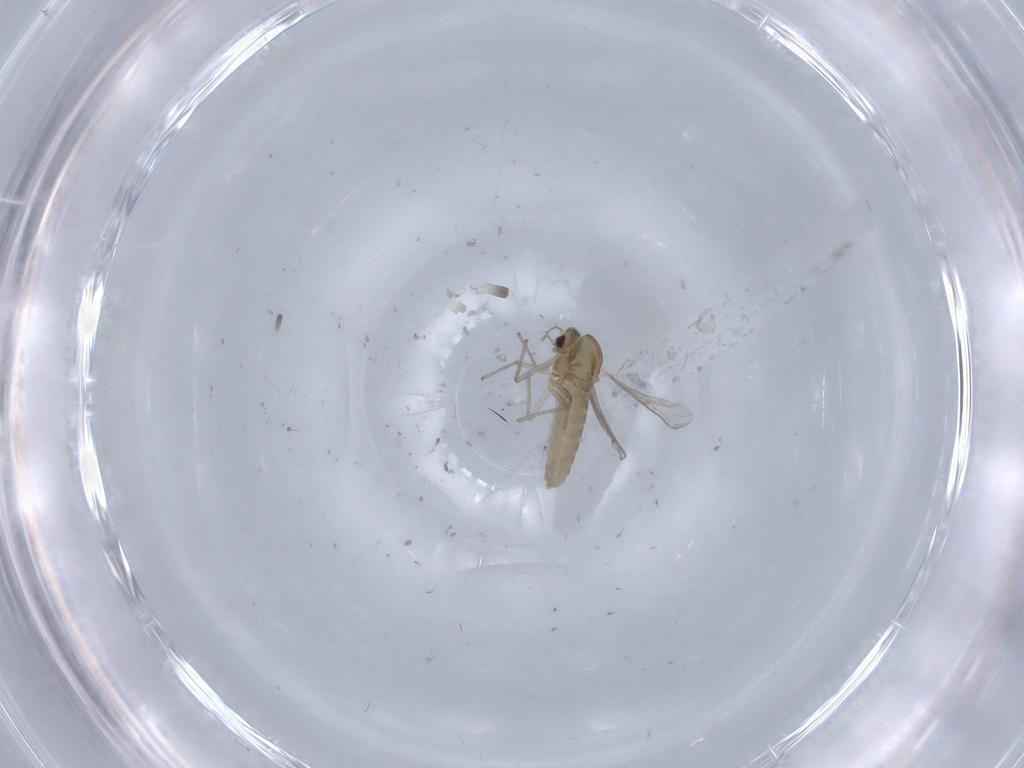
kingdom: Animalia
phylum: Arthropoda
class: Insecta
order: Diptera
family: Chironomidae
